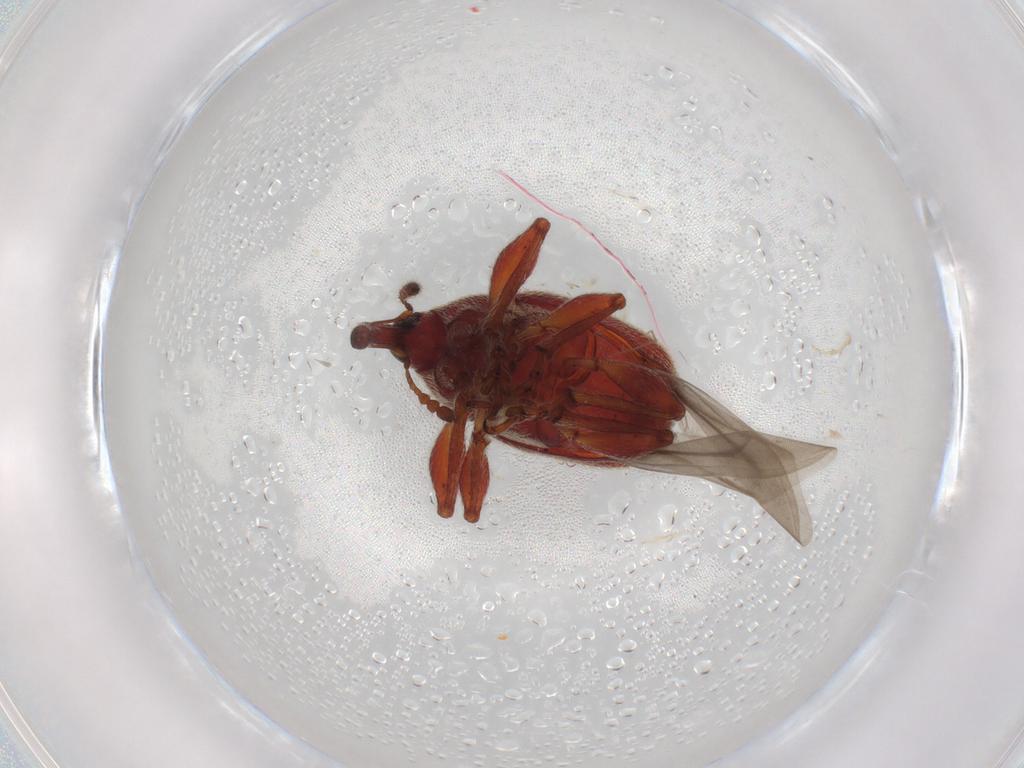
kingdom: Animalia
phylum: Arthropoda
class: Insecta
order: Coleoptera
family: Brentidae
